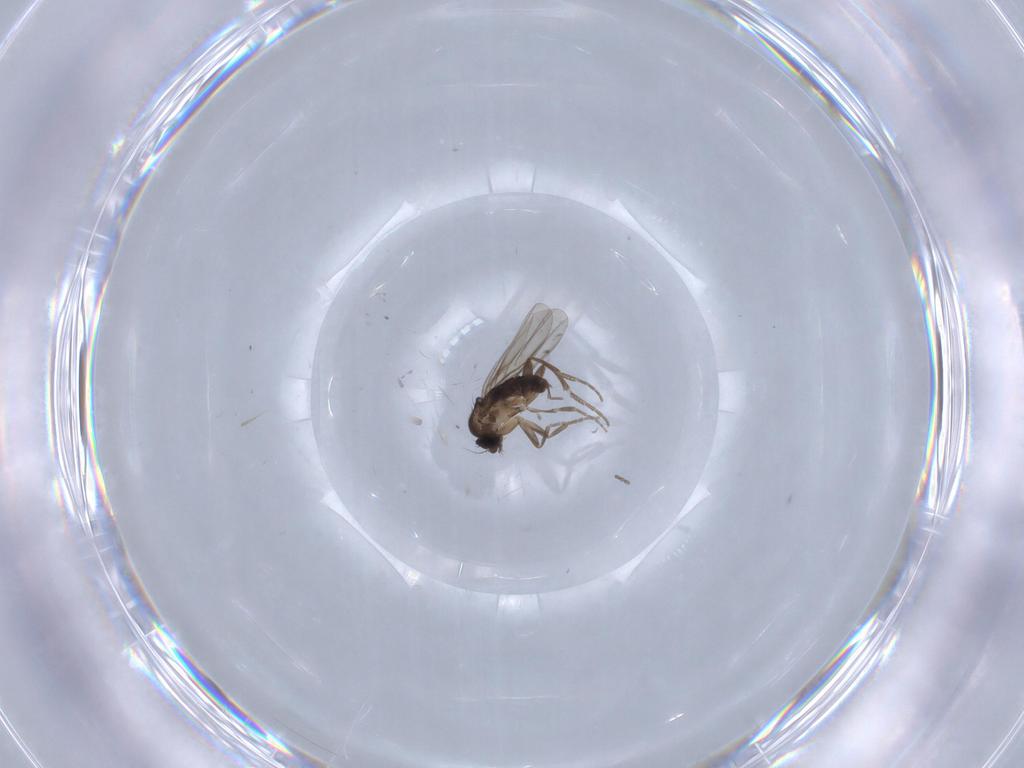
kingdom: Animalia
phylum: Arthropoda
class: Insecta
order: Diptera
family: Phoridae
